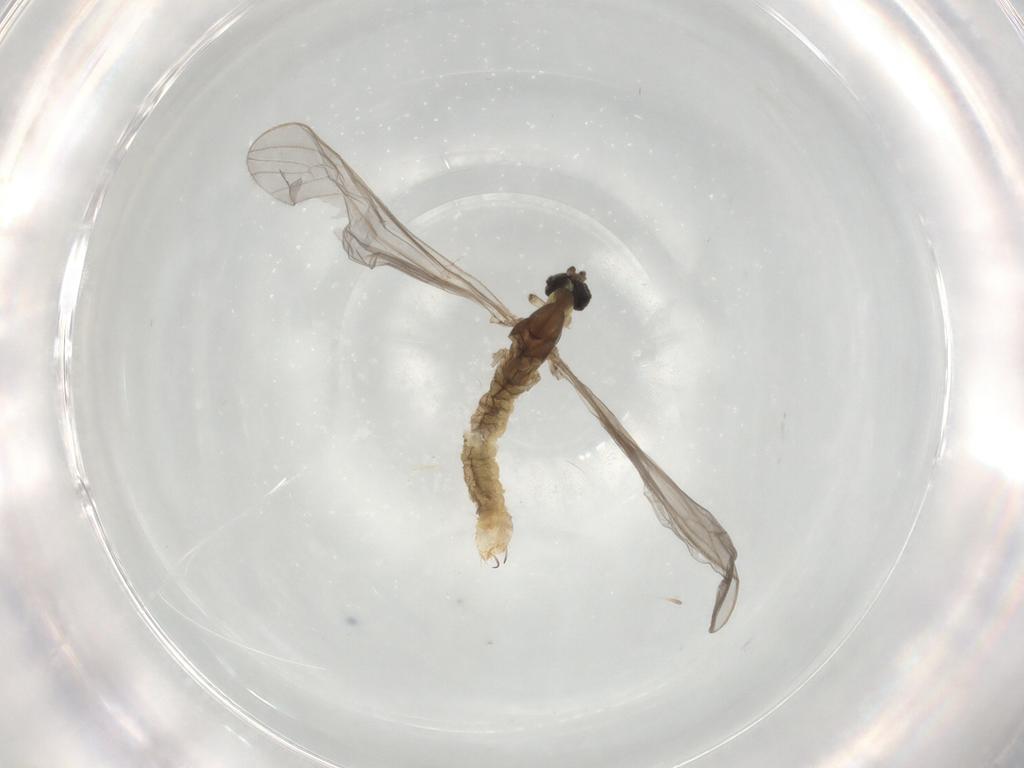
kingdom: Animalia
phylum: Arthropoda
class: Insecta
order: Diptera
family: Limoniidae
